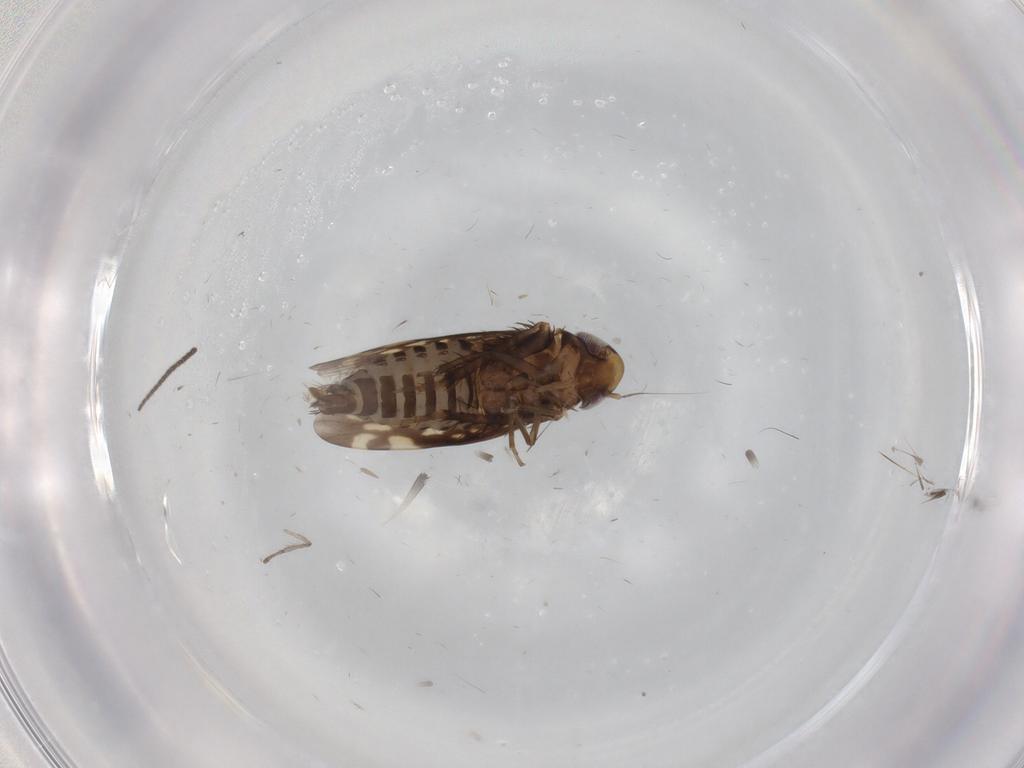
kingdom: Animalia
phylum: Arthropoda
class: Insecta
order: Hemiptera
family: Cicadellidae
